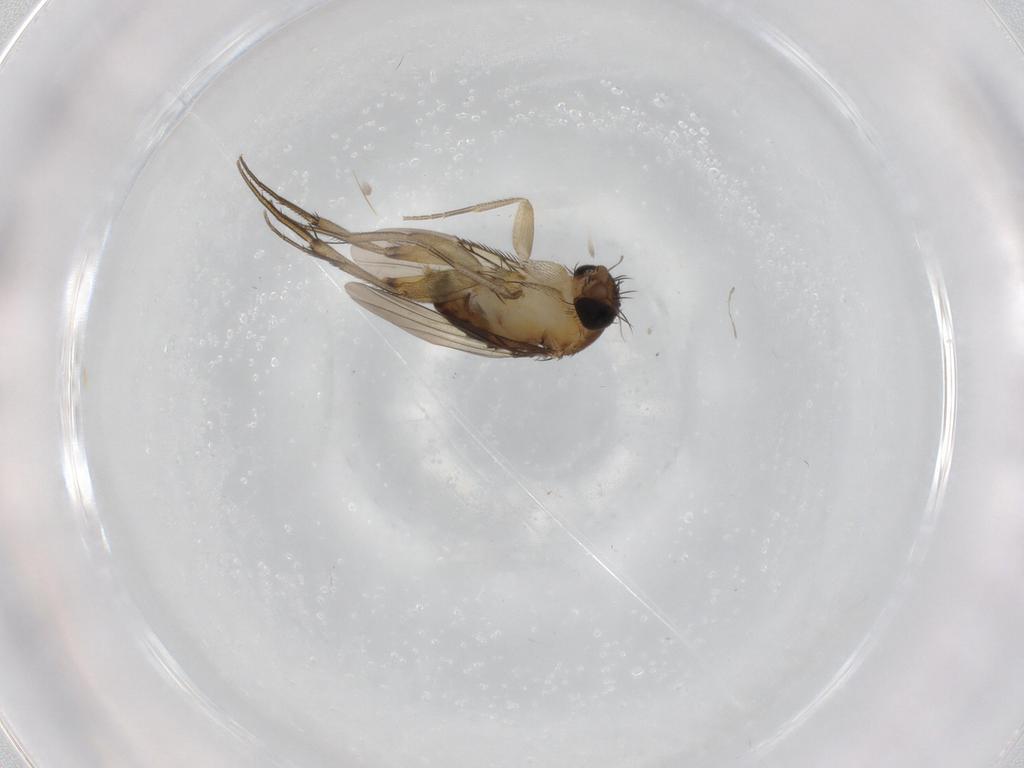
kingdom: Animalia
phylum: Arthropoda
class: Insecta
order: Diptera
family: Phoridae
